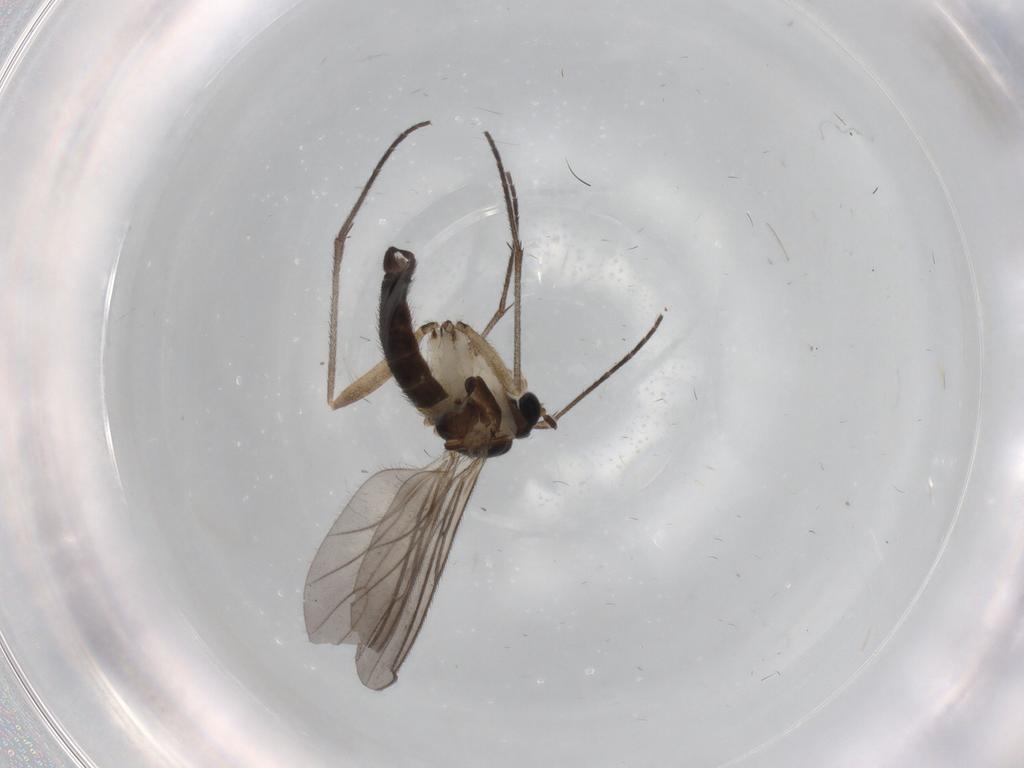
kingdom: Animalia
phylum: Arthropoda
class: Insecta
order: Diptera
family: Sciaridae
